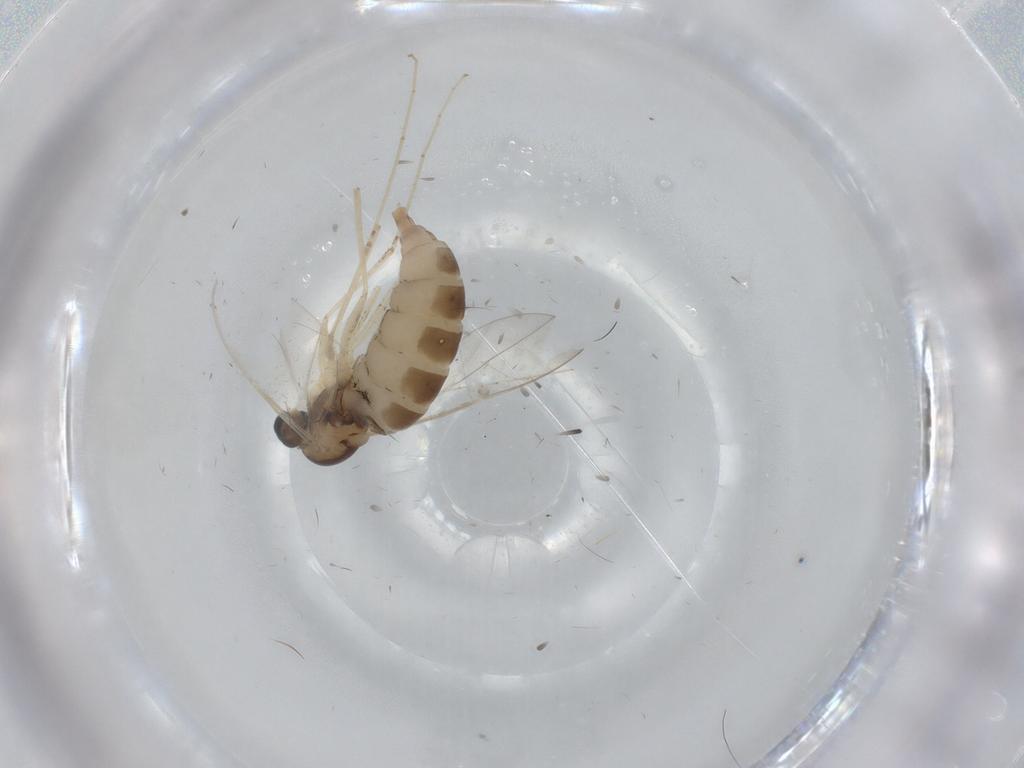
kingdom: Animalia
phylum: Arthropoda
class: Insecta
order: Diptera
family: Cecidomyiidae
